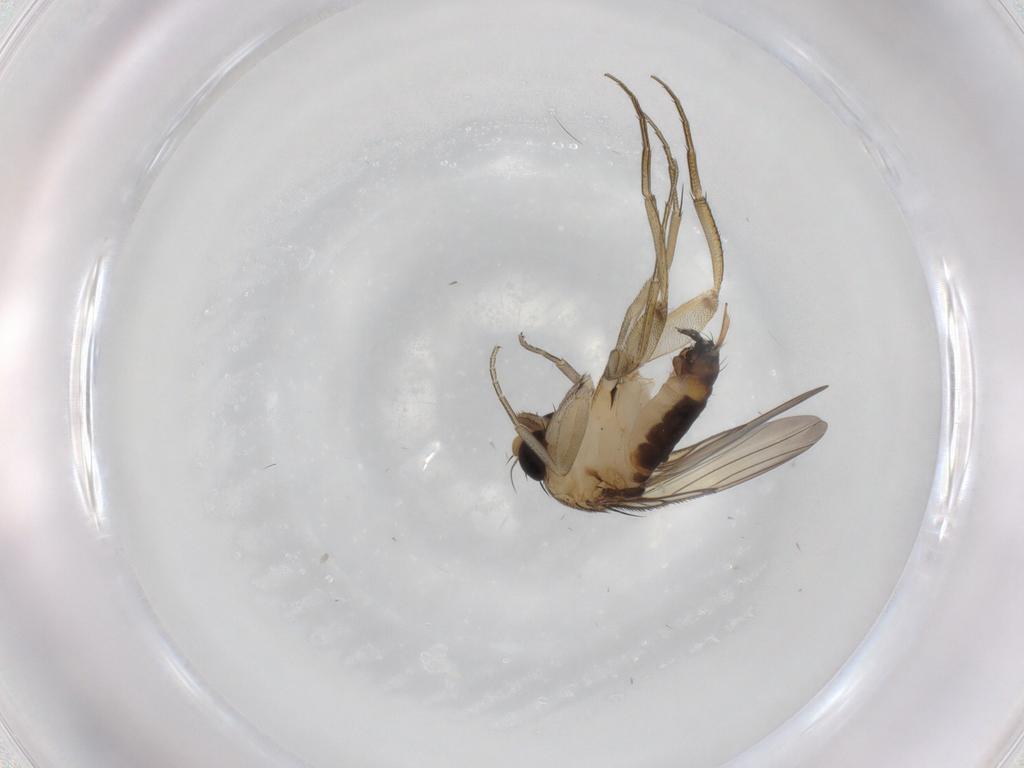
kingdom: Animalia
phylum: Arthropoda
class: Insecta
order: Diptera
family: Phoridae
